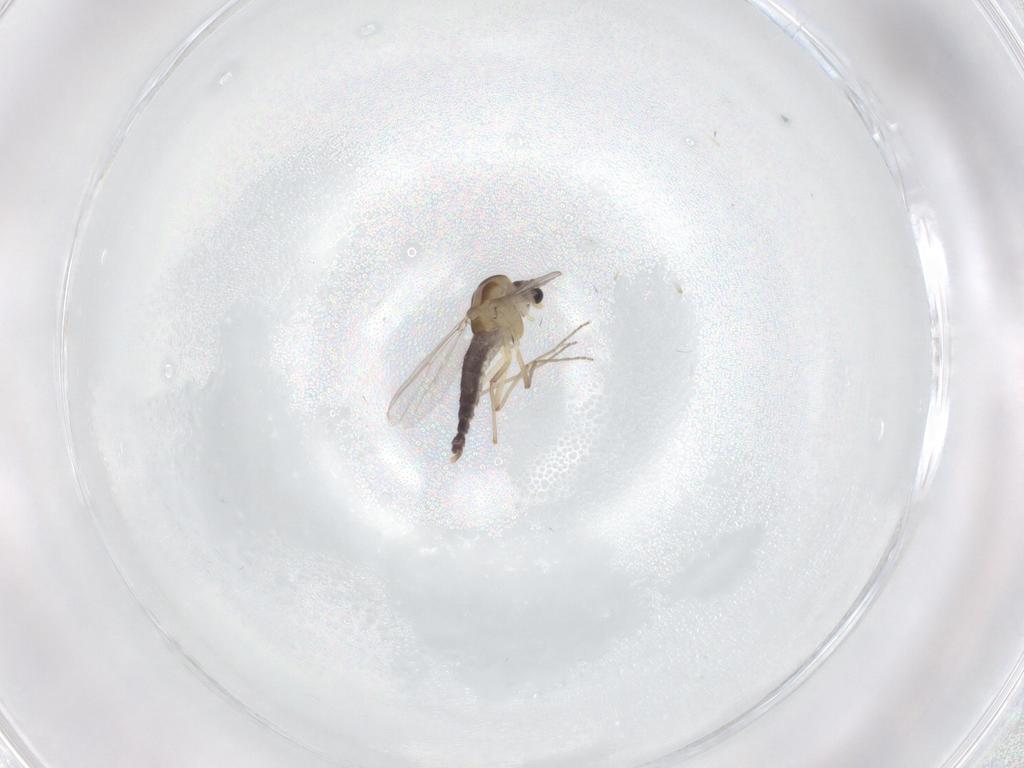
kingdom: Animalia
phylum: Arthropoda
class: Insecta
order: Diptera
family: Chironomidae
